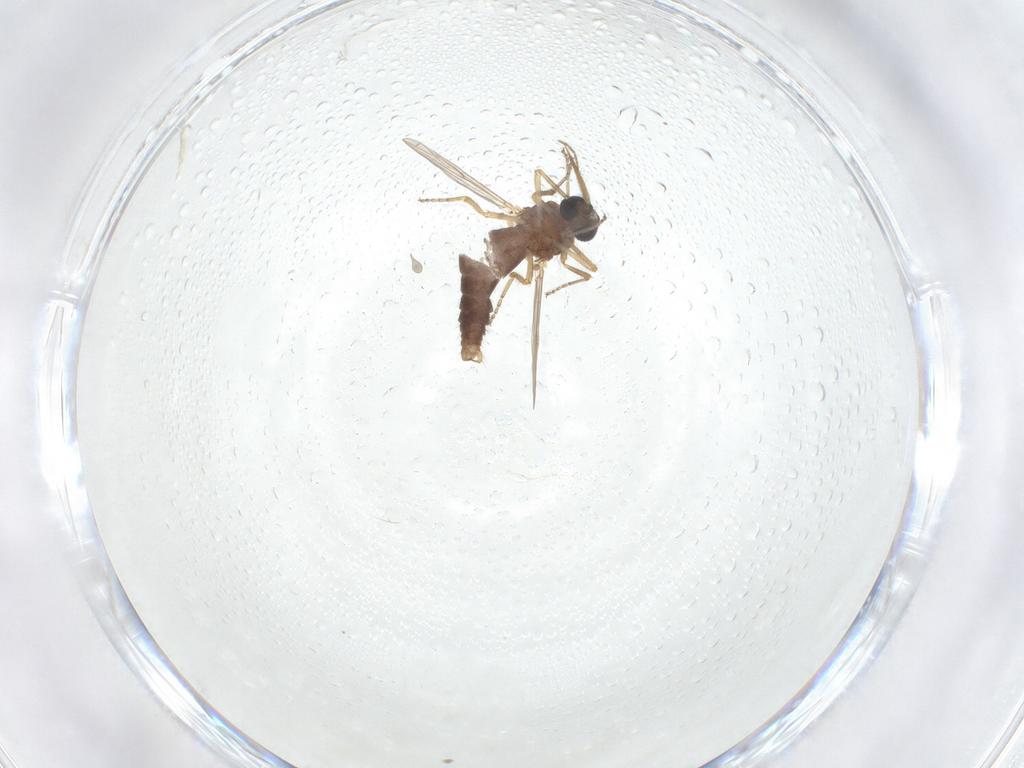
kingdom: Animalia
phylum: Arthropoda
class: Insecta
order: Diptera
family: Ceratopogonidae
